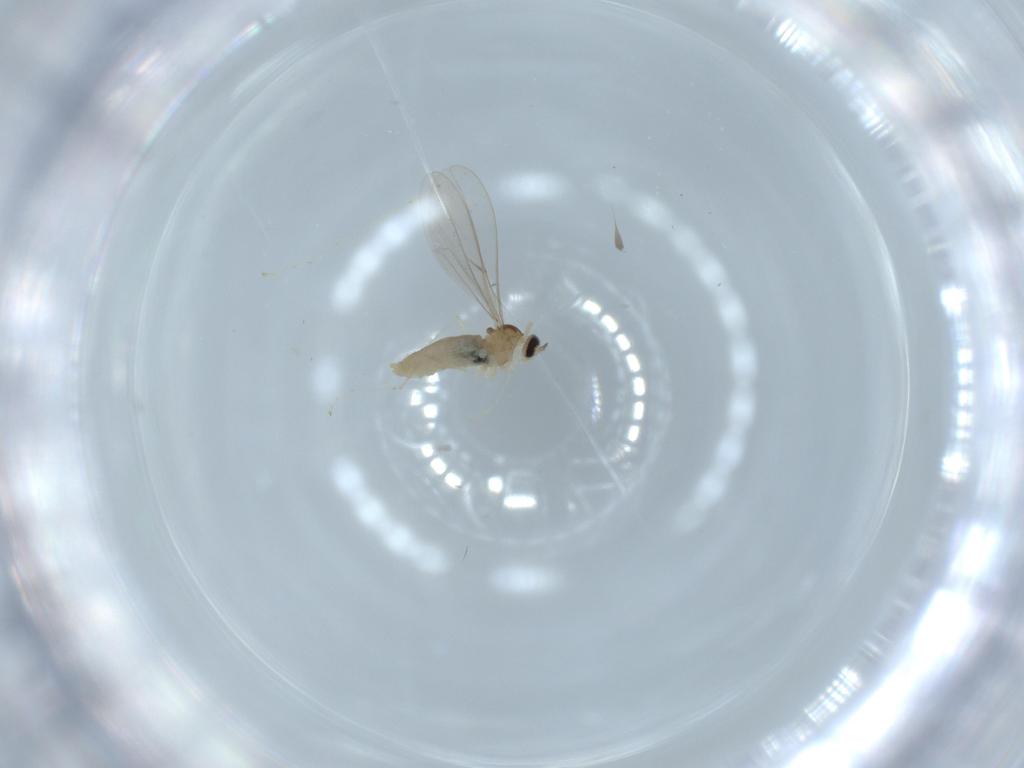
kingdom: Animalia
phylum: Arthropoda
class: Insecta
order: Diptera
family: Cecidomyiidae
